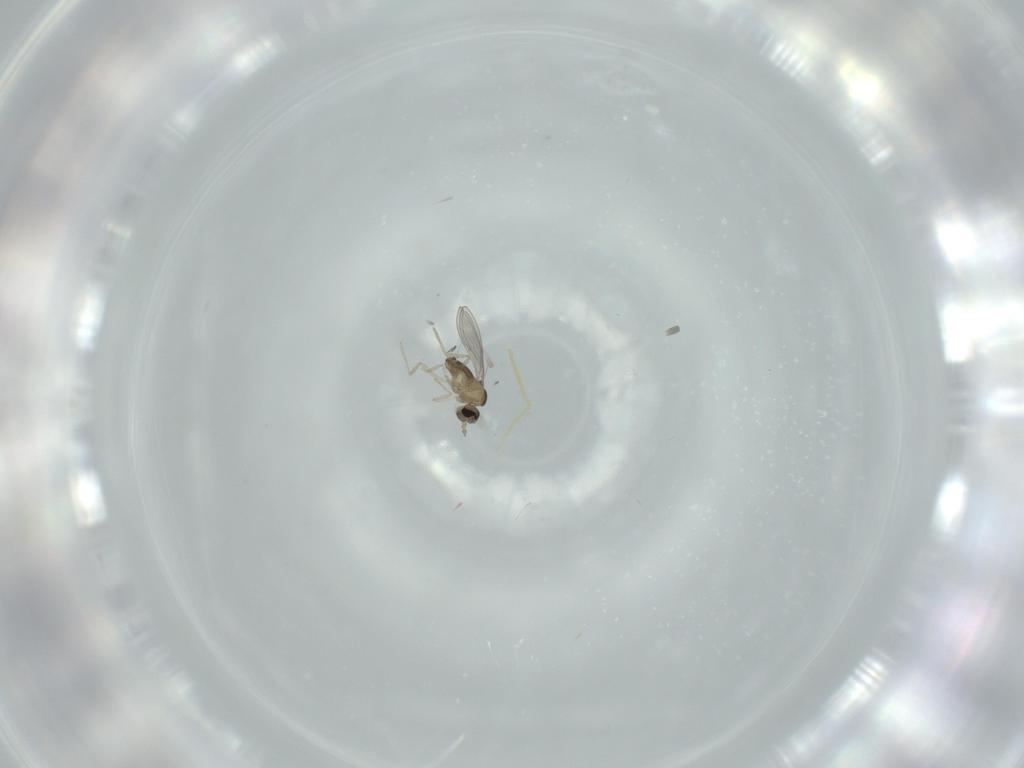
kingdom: Animalia
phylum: Arthropoda
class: Insecta
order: Diptera
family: Cecidomyiidae
